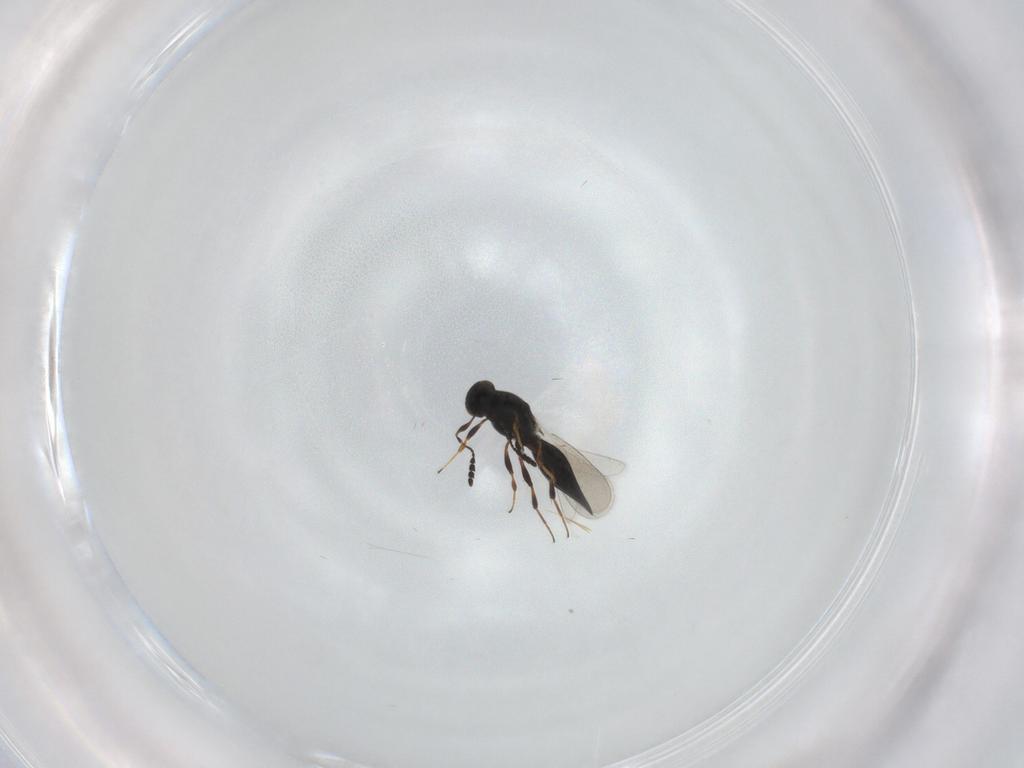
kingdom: Animalia
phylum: Arthropoda
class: Insecta
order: Hymenoptera
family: Platygastridae
